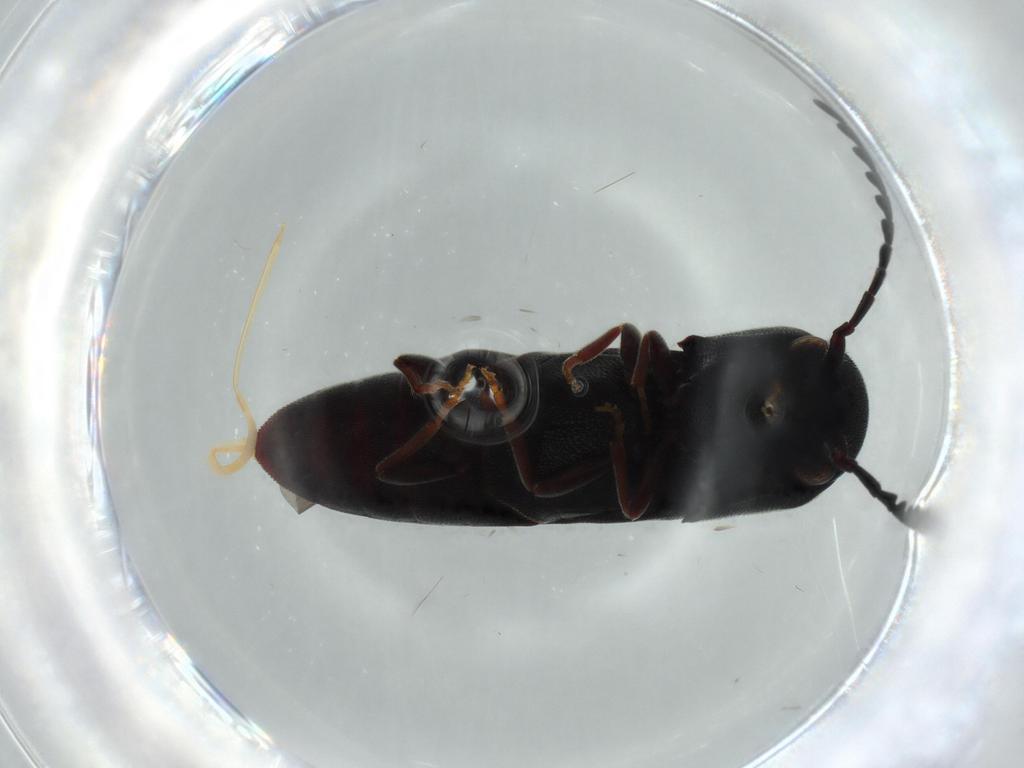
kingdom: Animalia
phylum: Arthropoda
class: Insecta
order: Coleoptera
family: Eucnemidae
